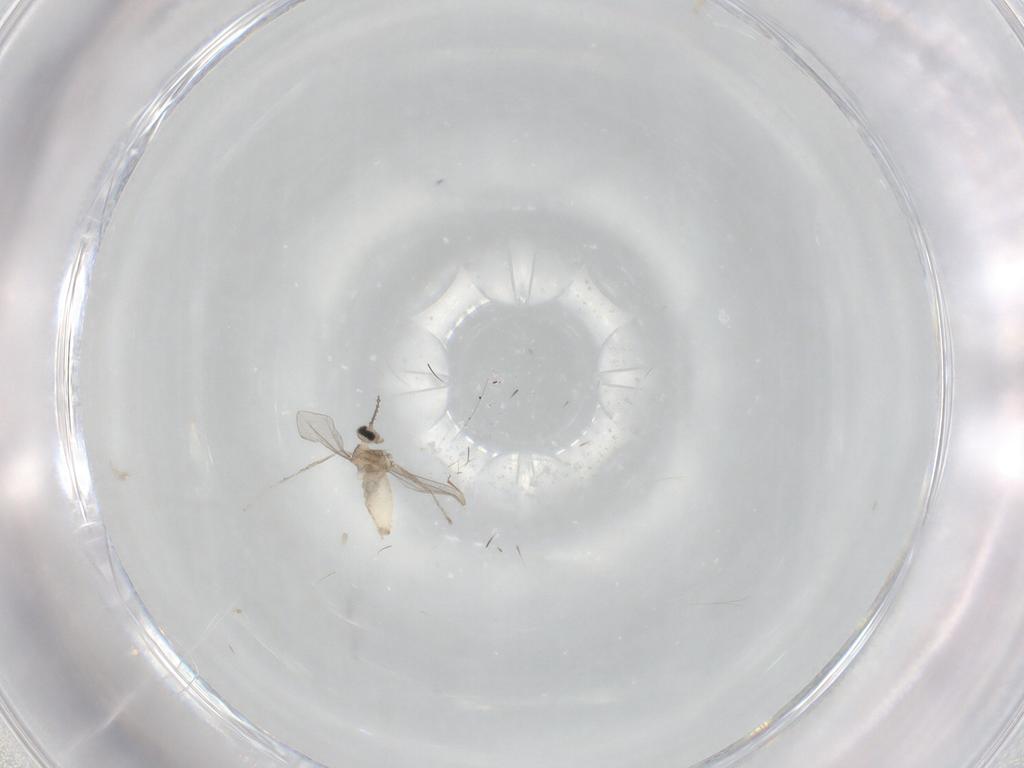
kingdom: Animalia
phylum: Arthropoda
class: Insecta
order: Diptera
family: Cecidomyiidae
